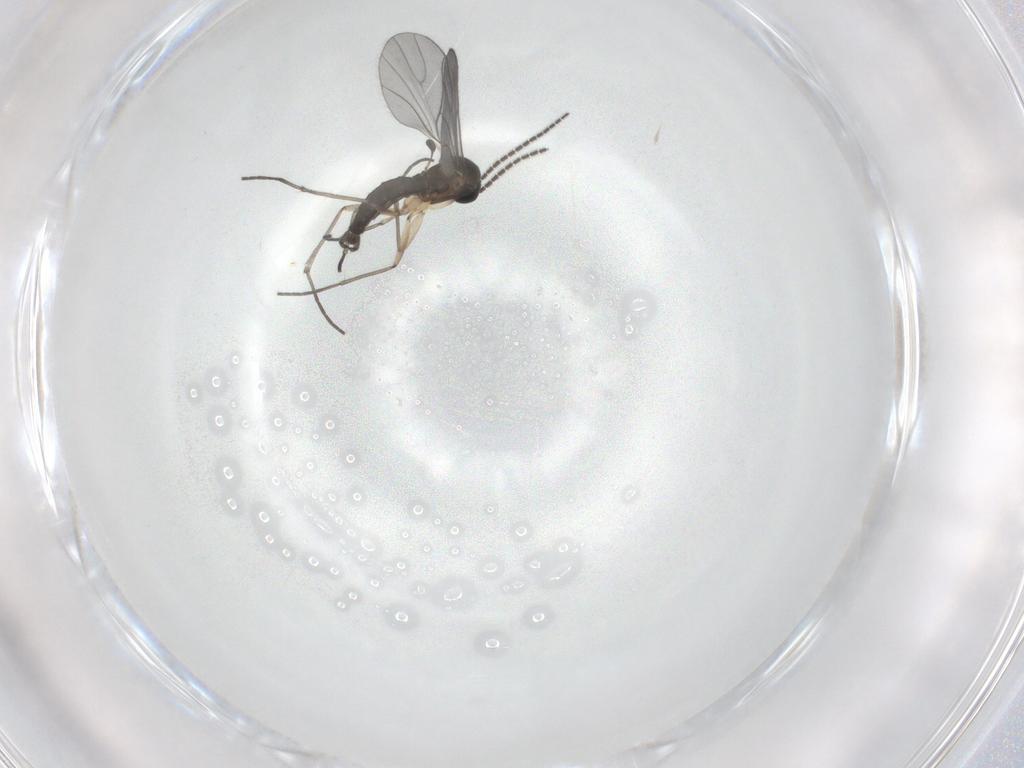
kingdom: Animalia
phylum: Arthropoda
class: Insecta
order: Diptera
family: Sciaridae
